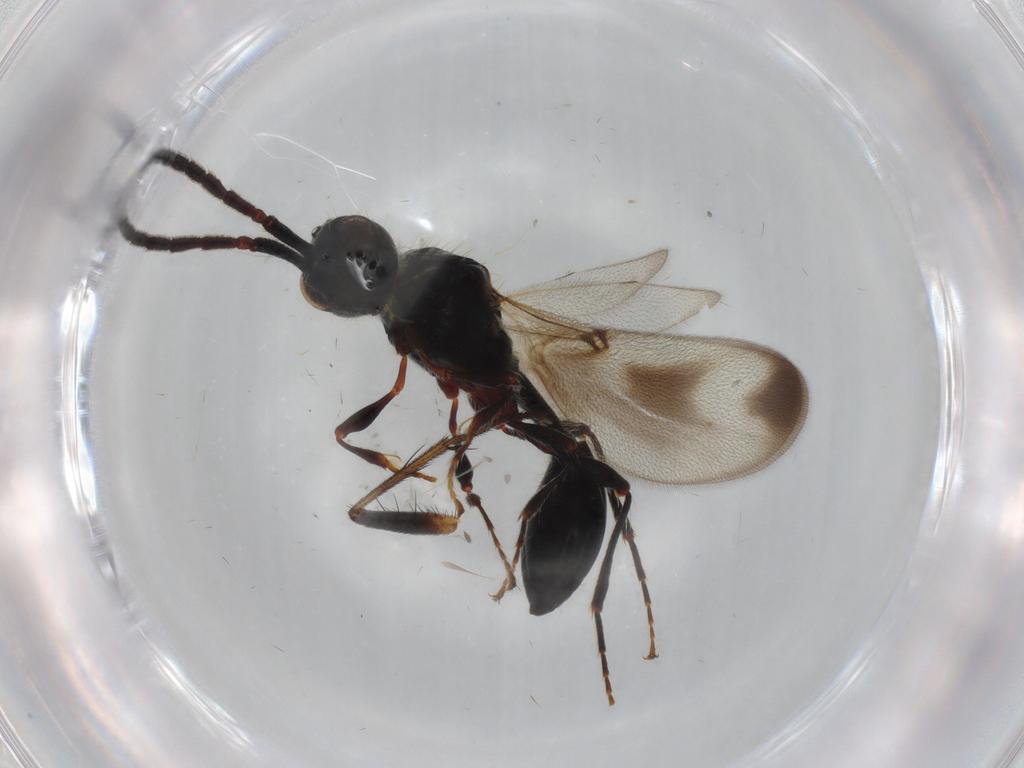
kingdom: Animalia
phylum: Arthropoda
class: Insecta
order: Hymenoptera
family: Diapriidae
